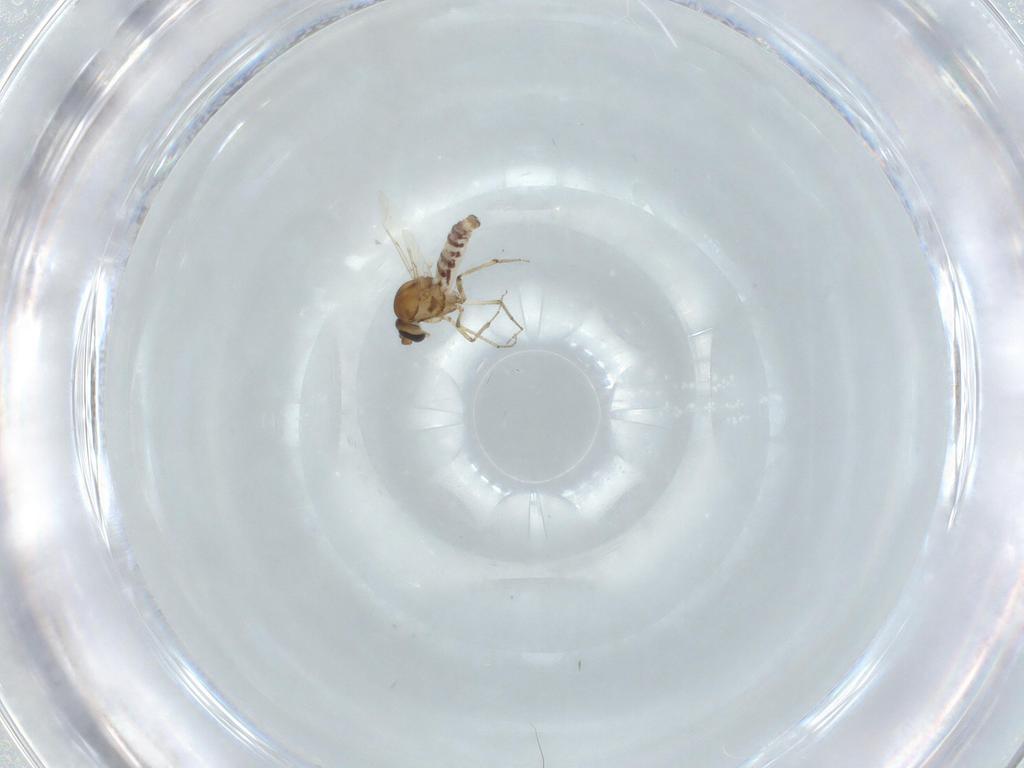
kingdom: Animalia
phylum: Arthropoda
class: Insecta
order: Diptera
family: Ceratopogonidae
